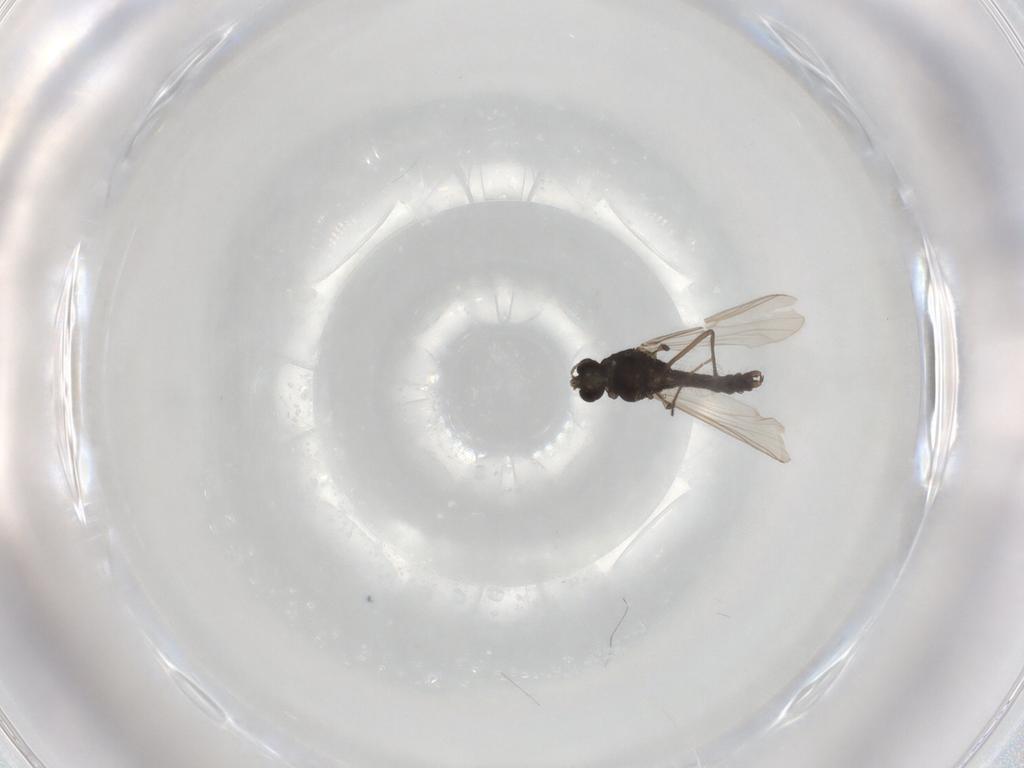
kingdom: Animalia
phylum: Arthropoda
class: Insecta
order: Diptera
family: Chironomidae
